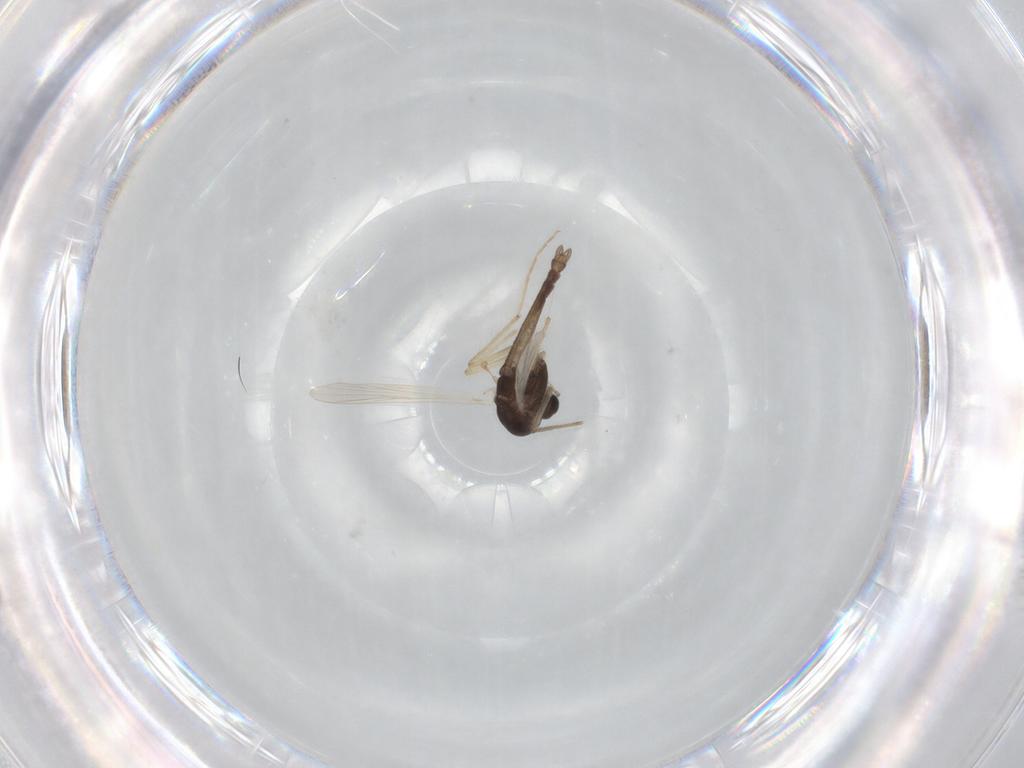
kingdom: Animalia
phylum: Arthropoda
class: Insecta
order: Diptera
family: Chironomidae
